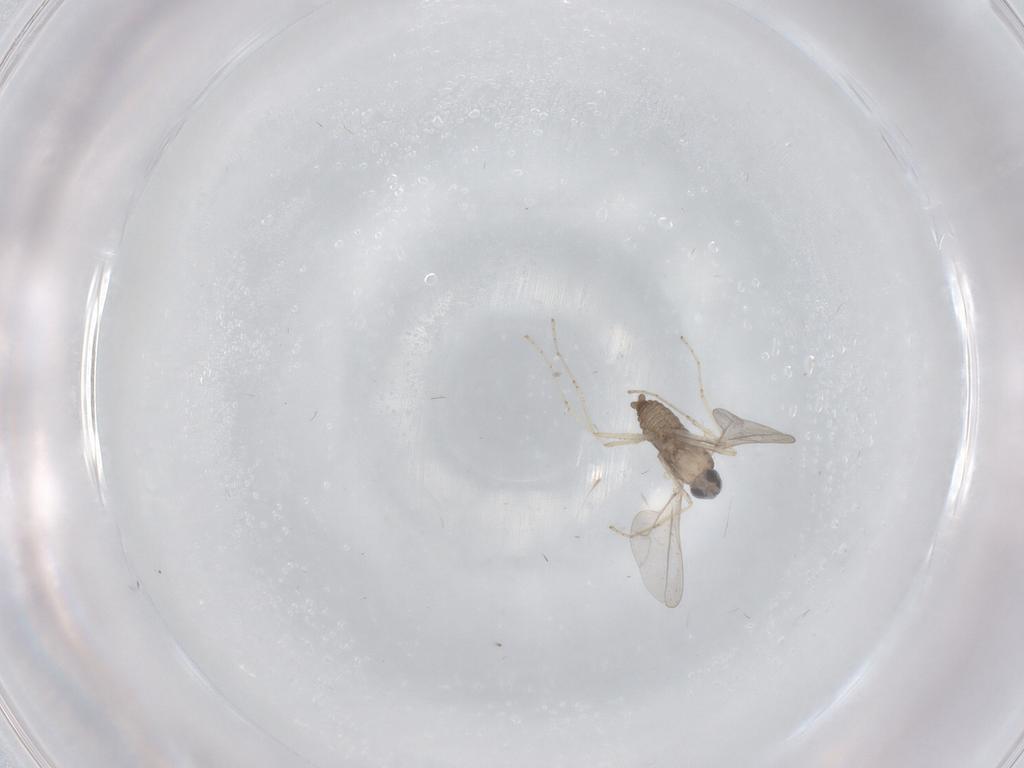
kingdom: Animalia
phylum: Arthropoda
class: Insecta
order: Diptera
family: Cecidomyiidae
